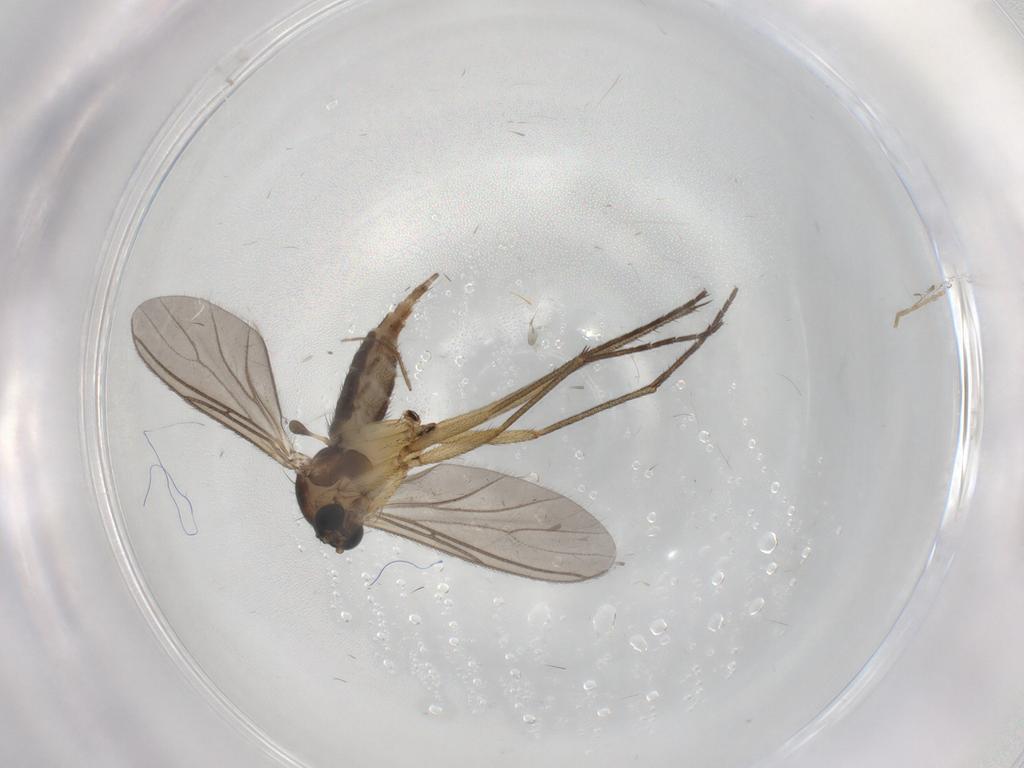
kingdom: Animalia
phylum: Arthropoda
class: Insecta
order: Diptera
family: Sciaridae
